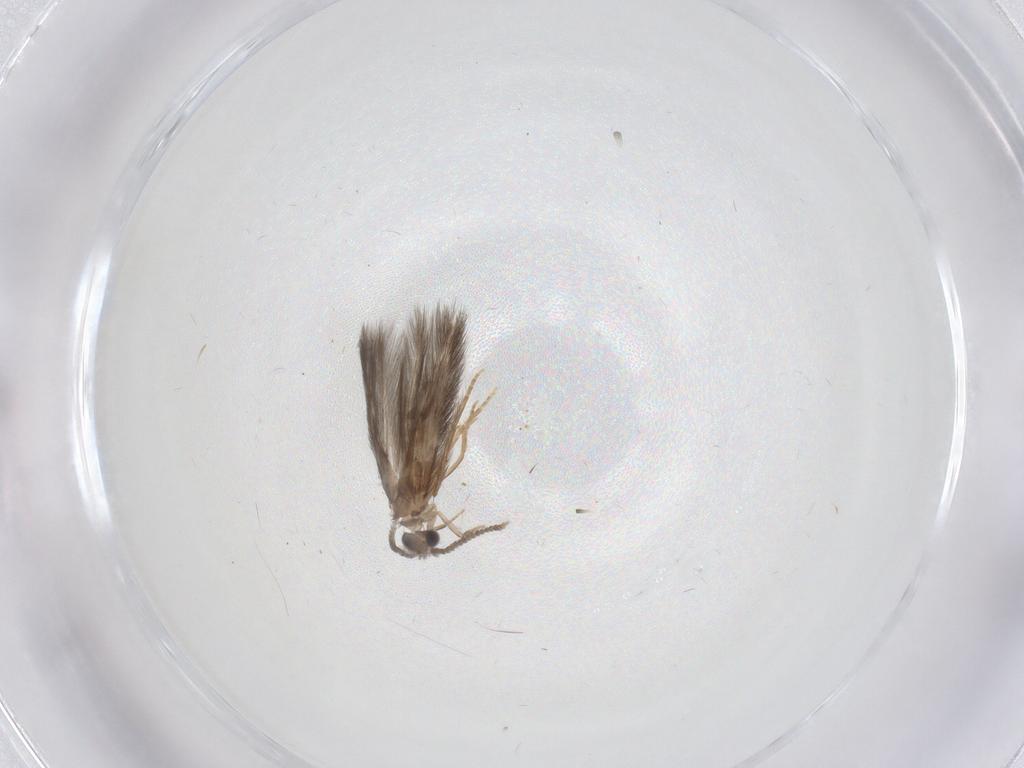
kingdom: Animalia
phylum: Arthropoda
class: Insecta
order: Trichoptera
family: Hydroptilidae
